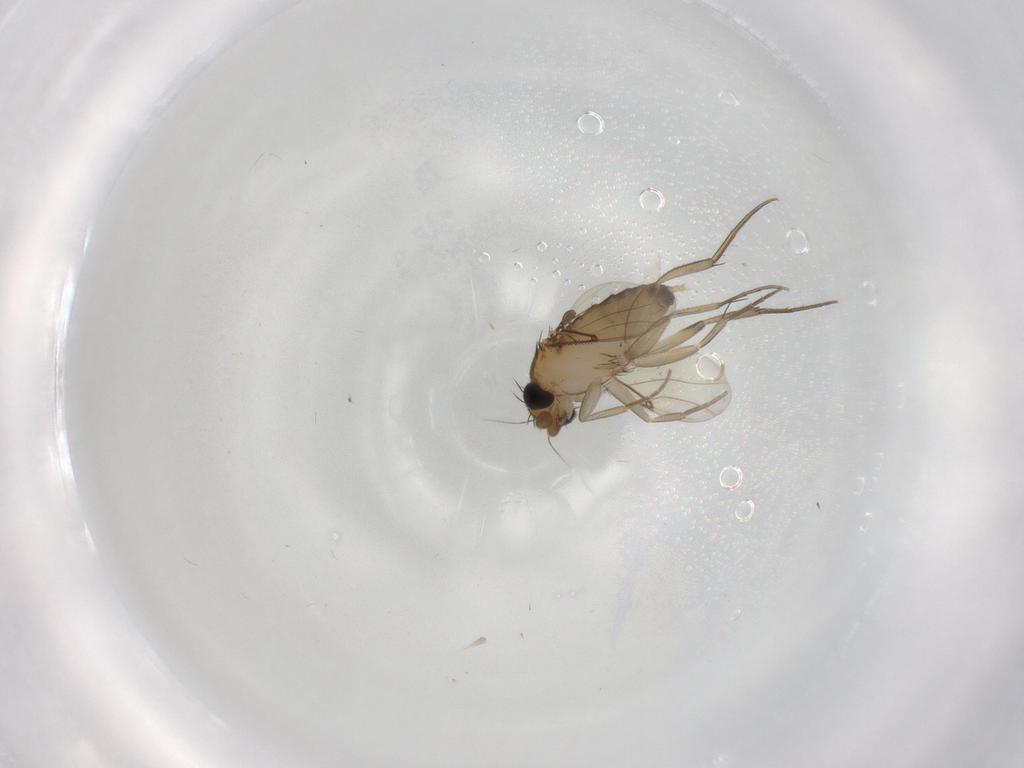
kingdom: Animalia
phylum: Arthropoda
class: Insecta
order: Diptera
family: Phoridae
